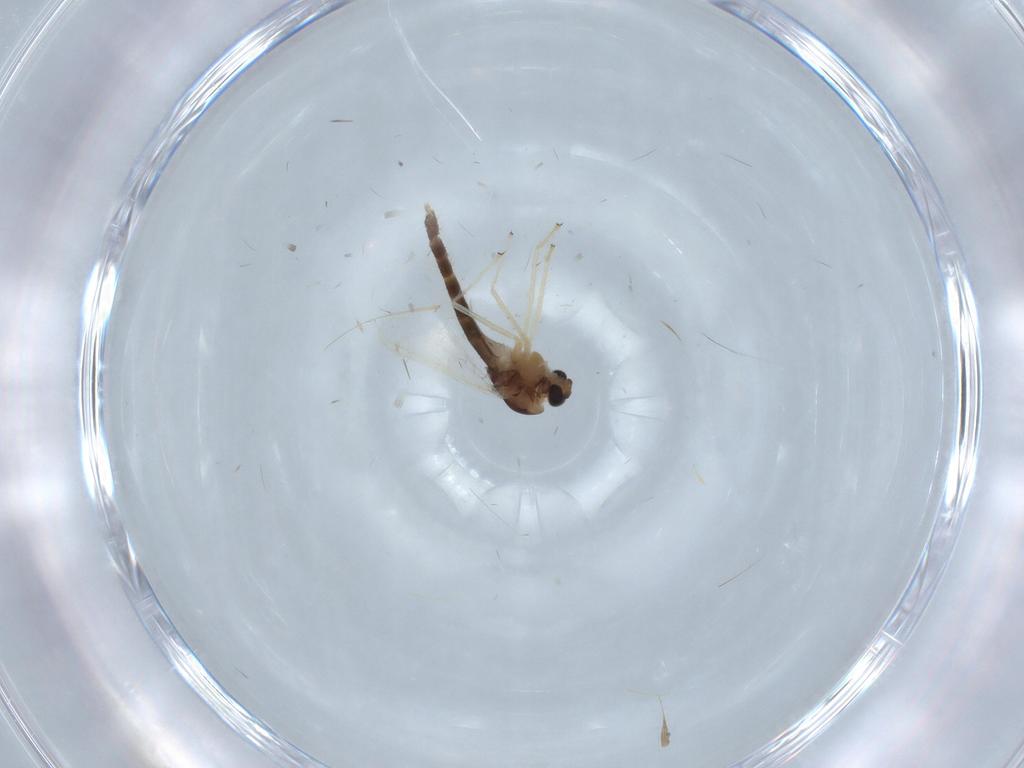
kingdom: Animalia
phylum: Arthropoda
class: Insecta
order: Diptera
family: Chironomidae
